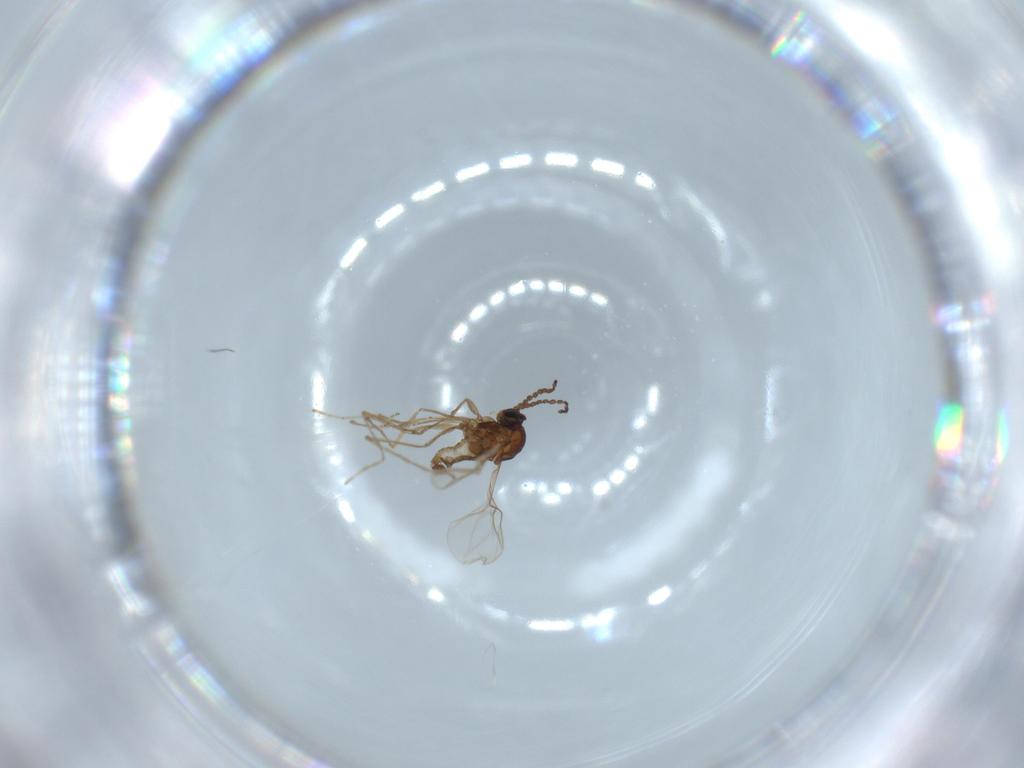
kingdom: Animalia
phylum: Arthropoda
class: Insecta
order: Diptera
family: Cecidomyiidae
